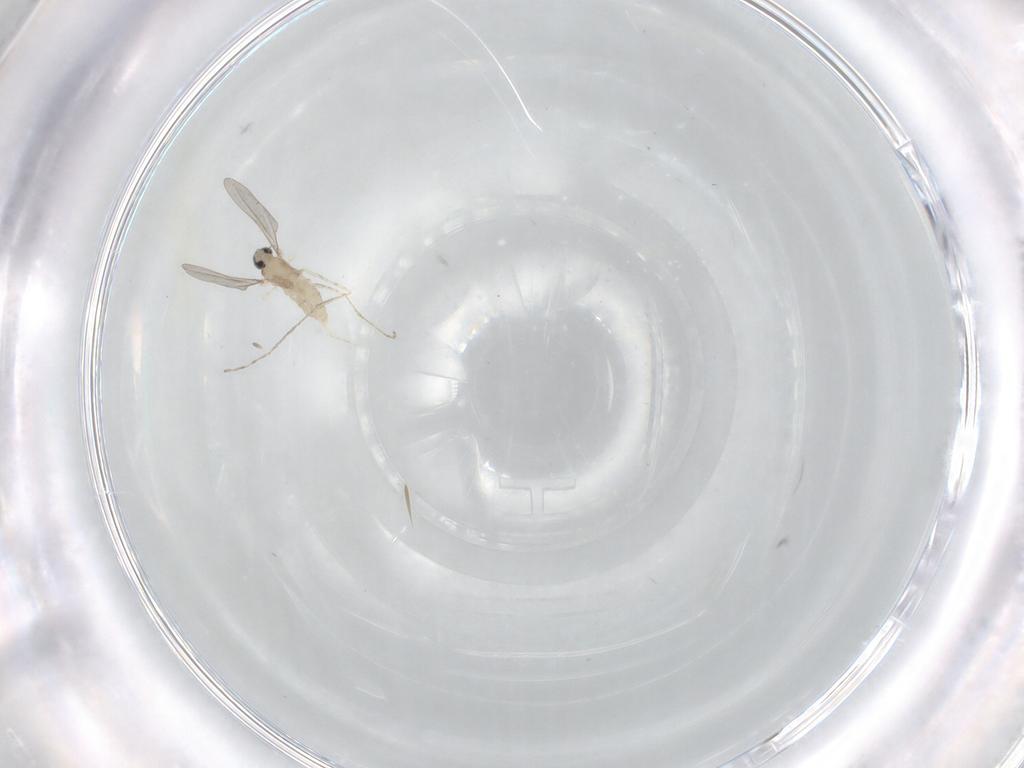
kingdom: Animalia
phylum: Arthropoda
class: Insecta
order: Diptera
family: Cecidomyiidae
